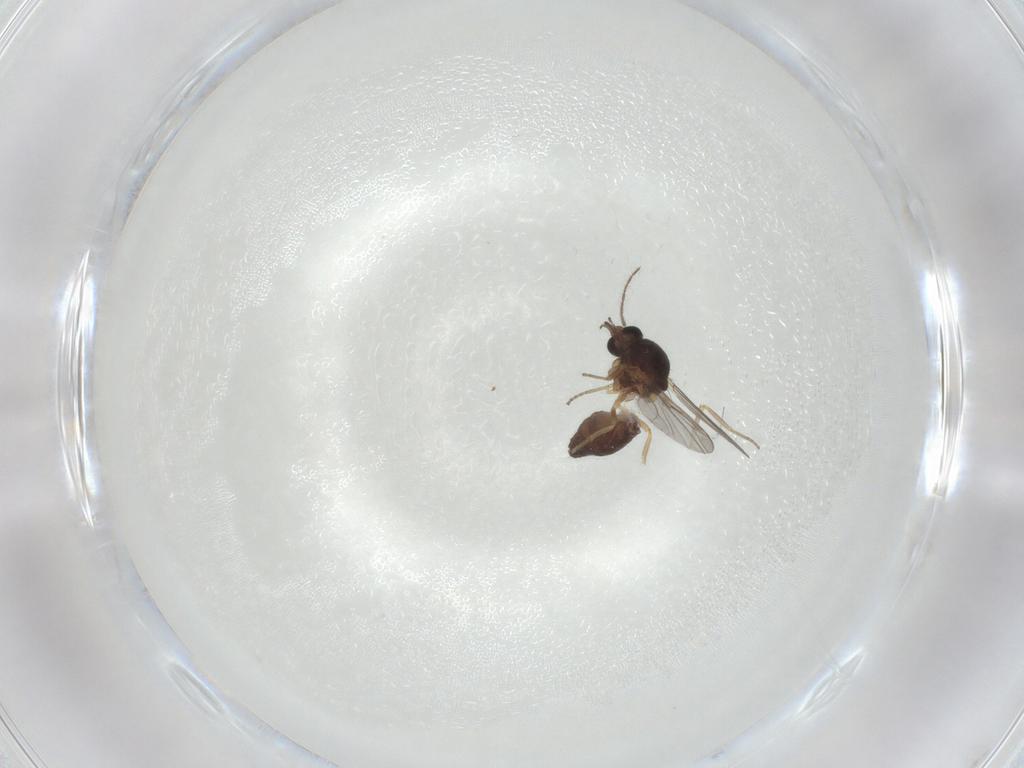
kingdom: Animalia
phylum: Arthropoda
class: Insecta
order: Diptera
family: Ceratopogonidae
